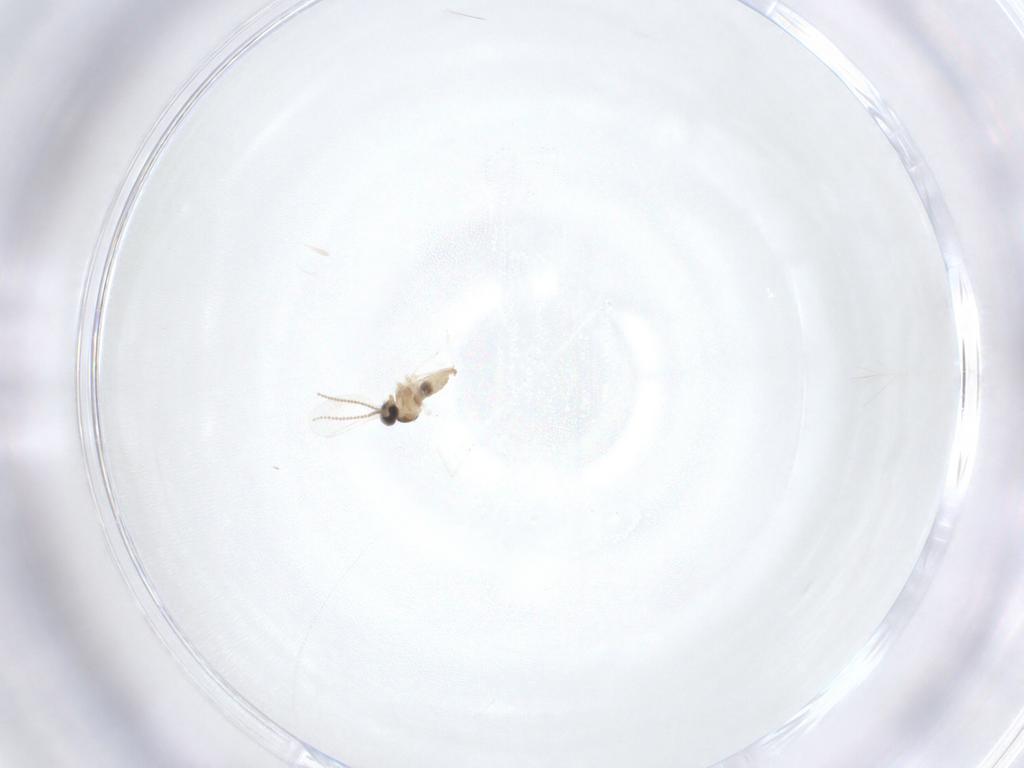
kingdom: Animalia
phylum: Arthropoda
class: Insecta
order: Diptera
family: Cecidomyiidae
